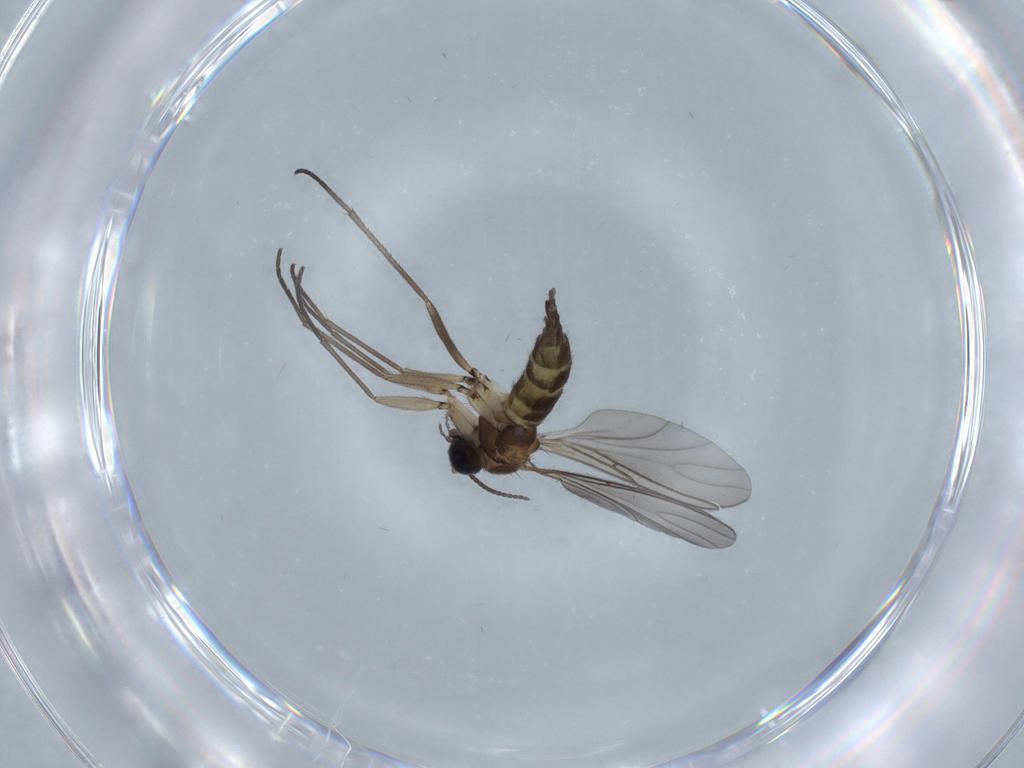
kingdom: Animalia
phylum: Arthropoda
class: Insecta
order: Diptera
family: Sciaridae
